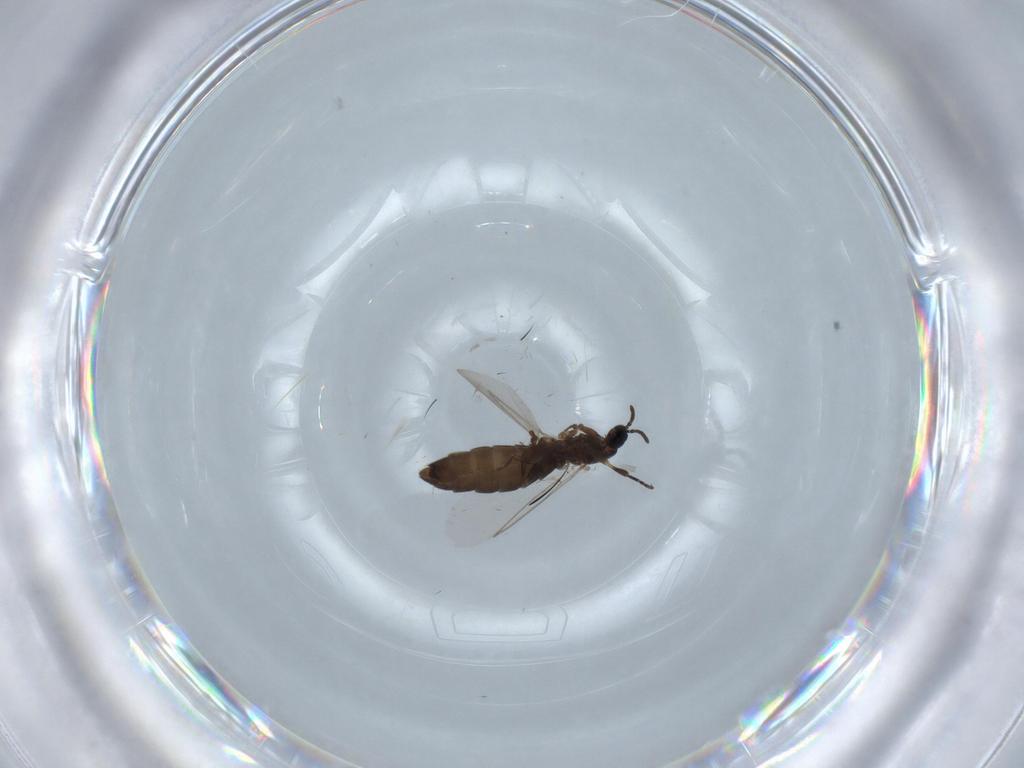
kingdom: Animalia
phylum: Arthropoda
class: Insecta
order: Diptera
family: Scatopsidae
